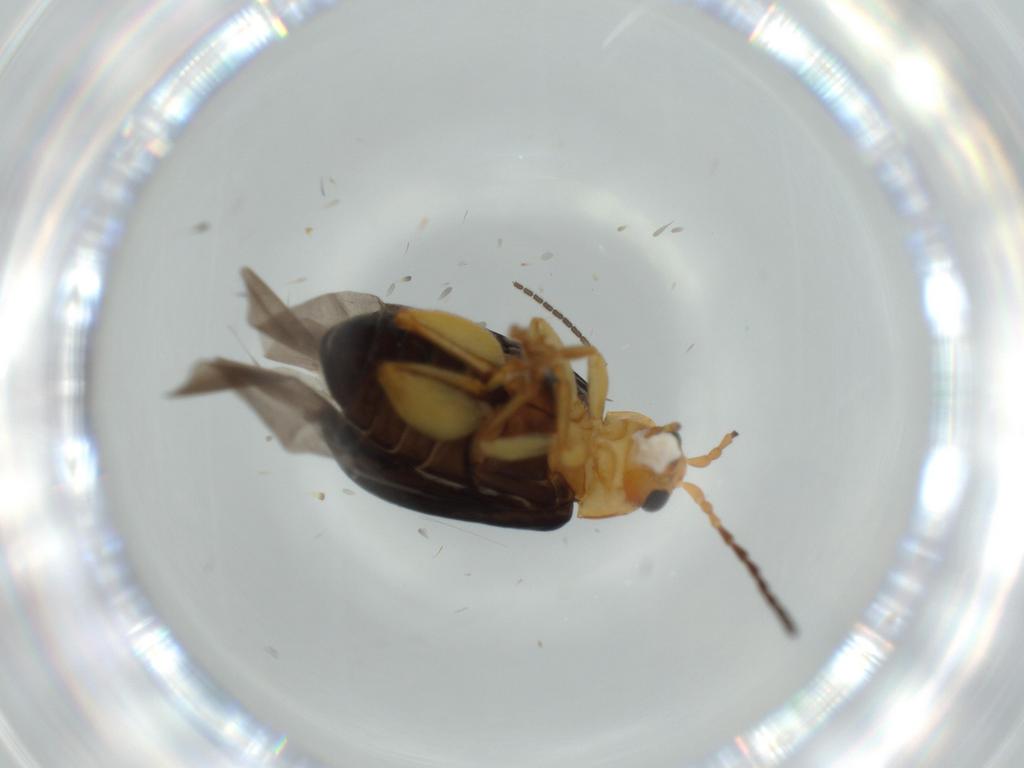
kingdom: Animalia
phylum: Arthropoda
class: Insecta
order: Coleoptera
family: Chrysomelidae
